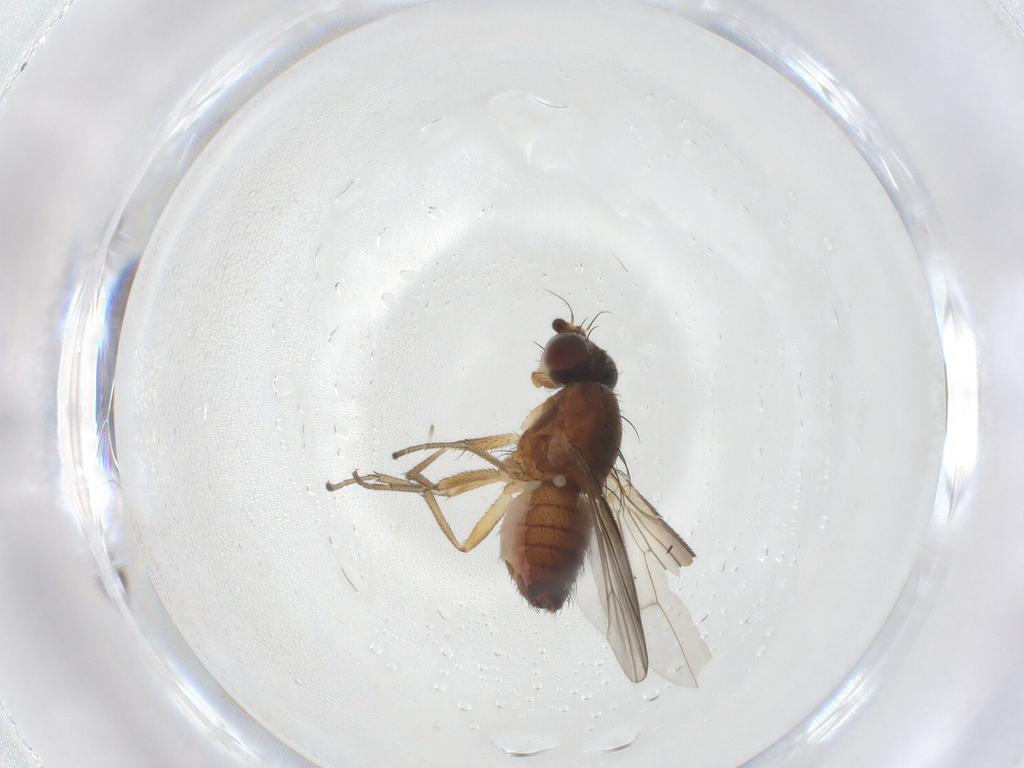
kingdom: Animalia
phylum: Arthropoda
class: Insecta
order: Diptera
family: Heleomyzidae
